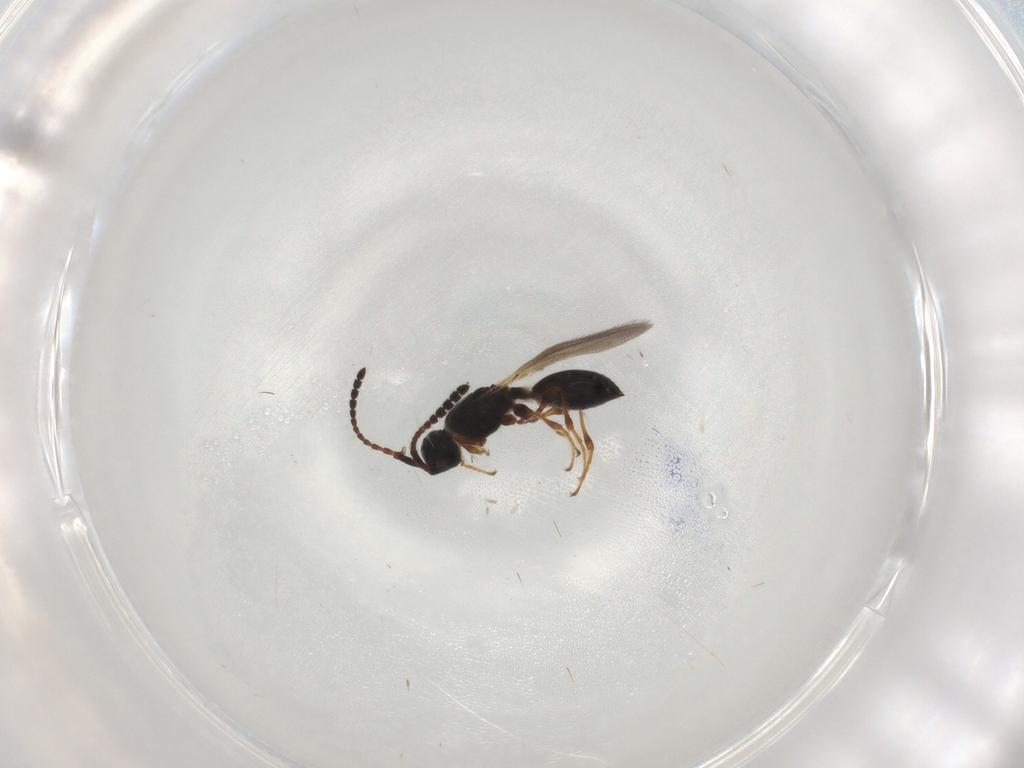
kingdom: Animalia
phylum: Arthropoda
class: Insecta
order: Hymenoptera
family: Diapriidae
